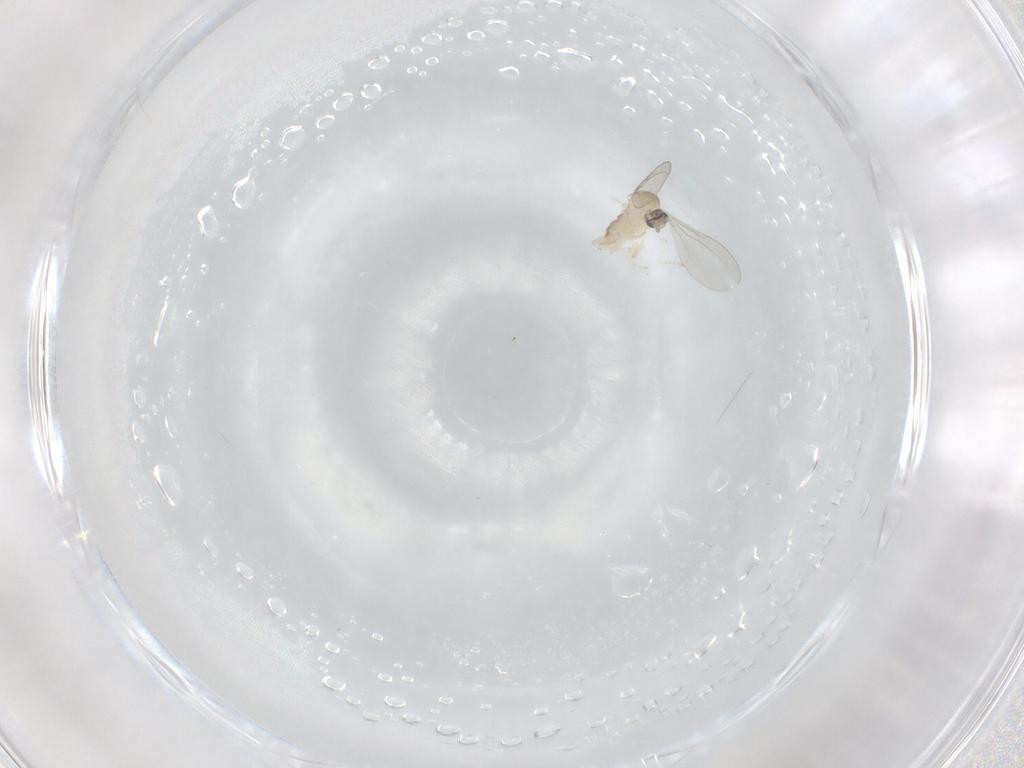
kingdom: Animalia
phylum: Arthropoda
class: Insecta
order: Diptera
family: Cecidomyiidae
